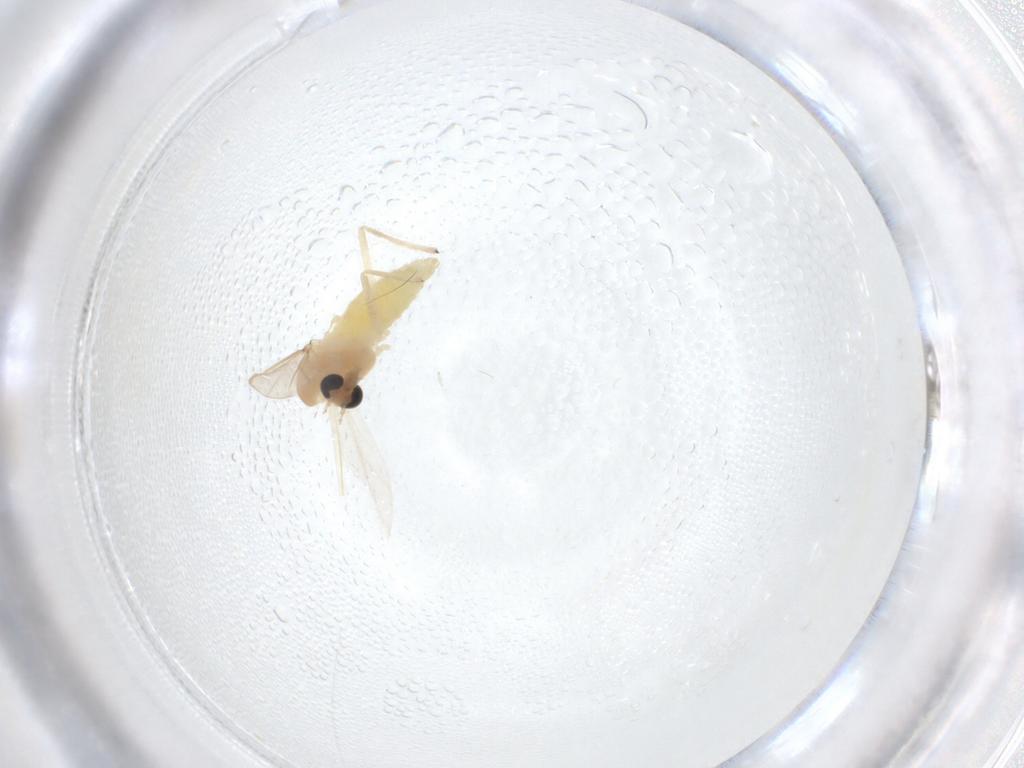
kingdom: Animalia
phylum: Arthropoda
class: Insecta
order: Diptera
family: Chironomidae
